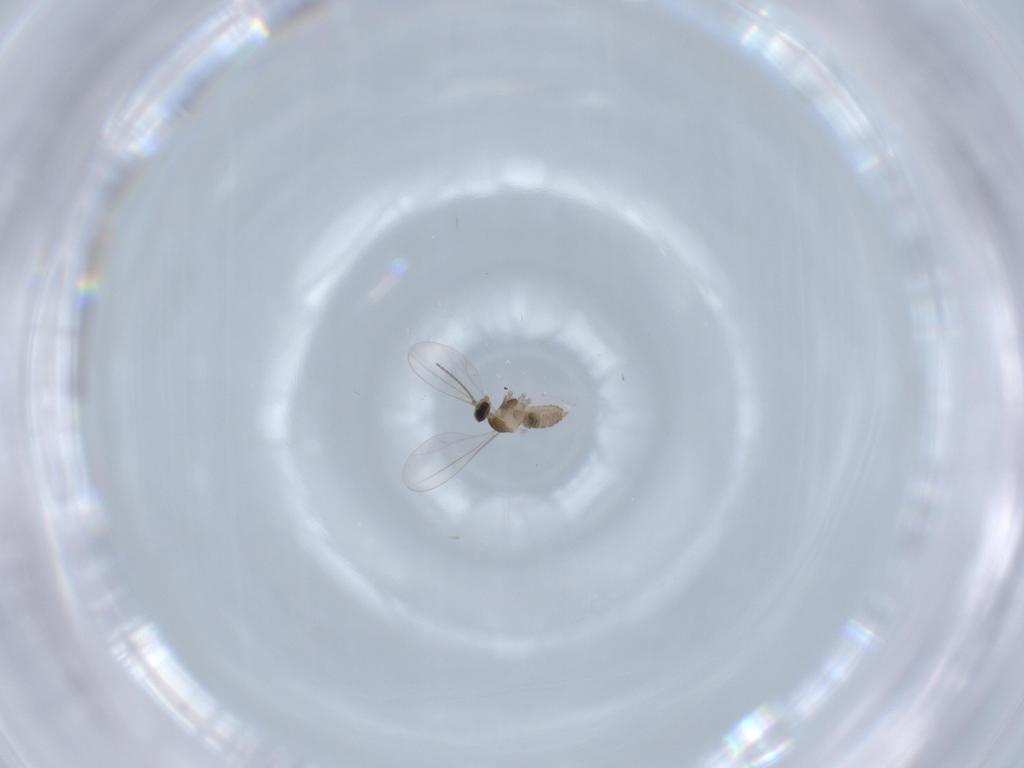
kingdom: Animalia
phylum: Arthropoda
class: Insecta
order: Diptera
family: Cecidomyiidae
